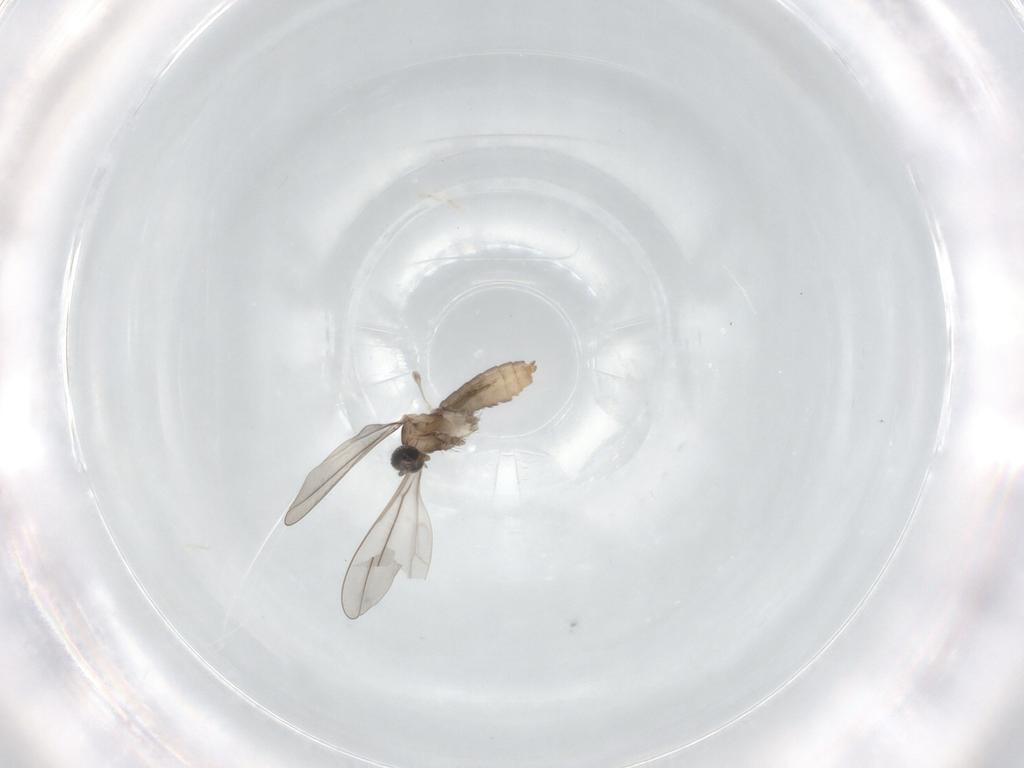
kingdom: Animalia
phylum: Arthropoda
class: Insecta
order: Diptera
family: Cecidomyiidae
